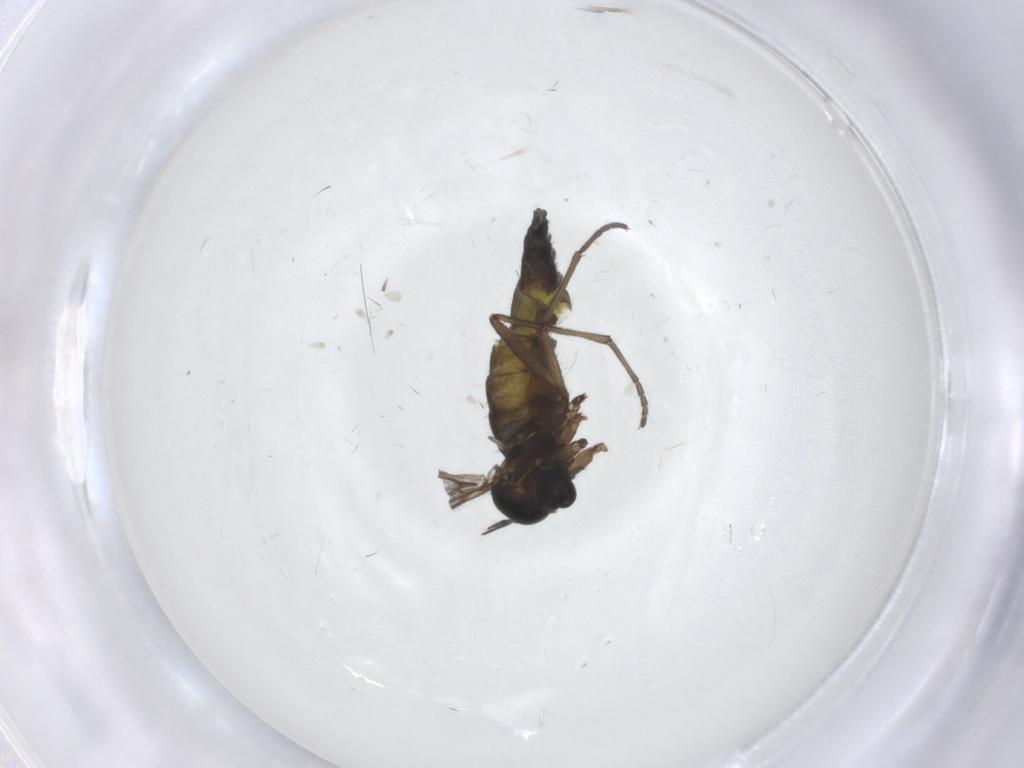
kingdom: Animalia
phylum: Arthropoda
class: Insecta
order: Diptera
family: Sciaridae
